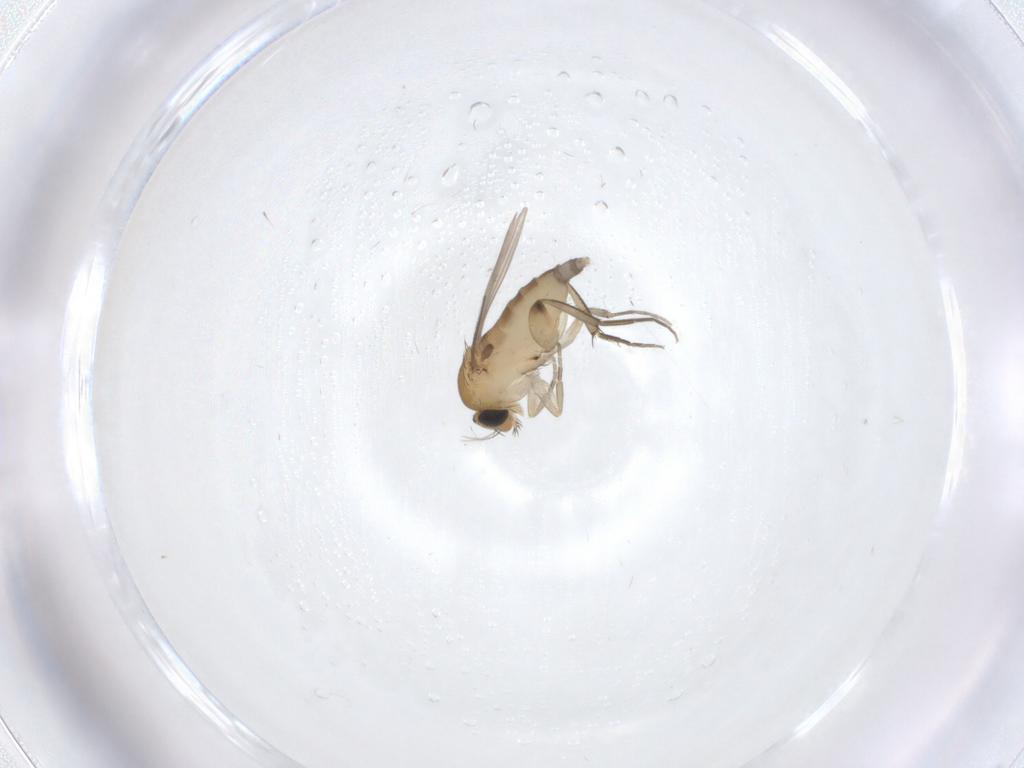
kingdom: Animalia
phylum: Arthropoda
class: Insecta
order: Diptera
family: Phoridae
